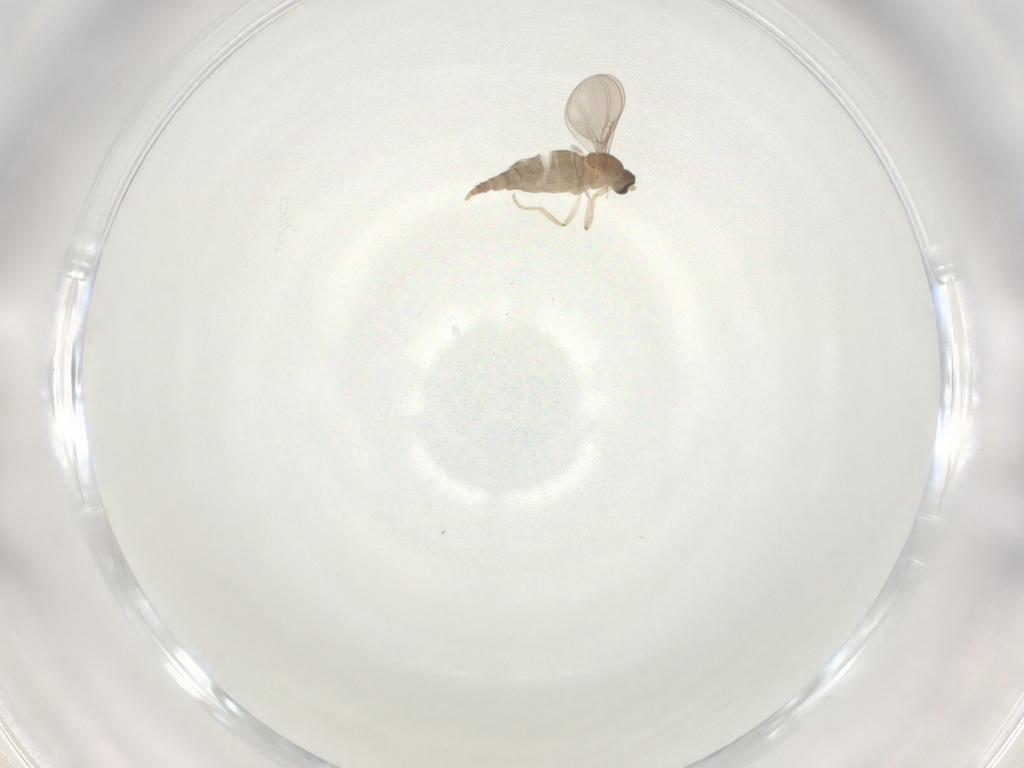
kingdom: Animalia
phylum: Arthropoda
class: Insecta
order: Diptera
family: Cecidomyiidae
